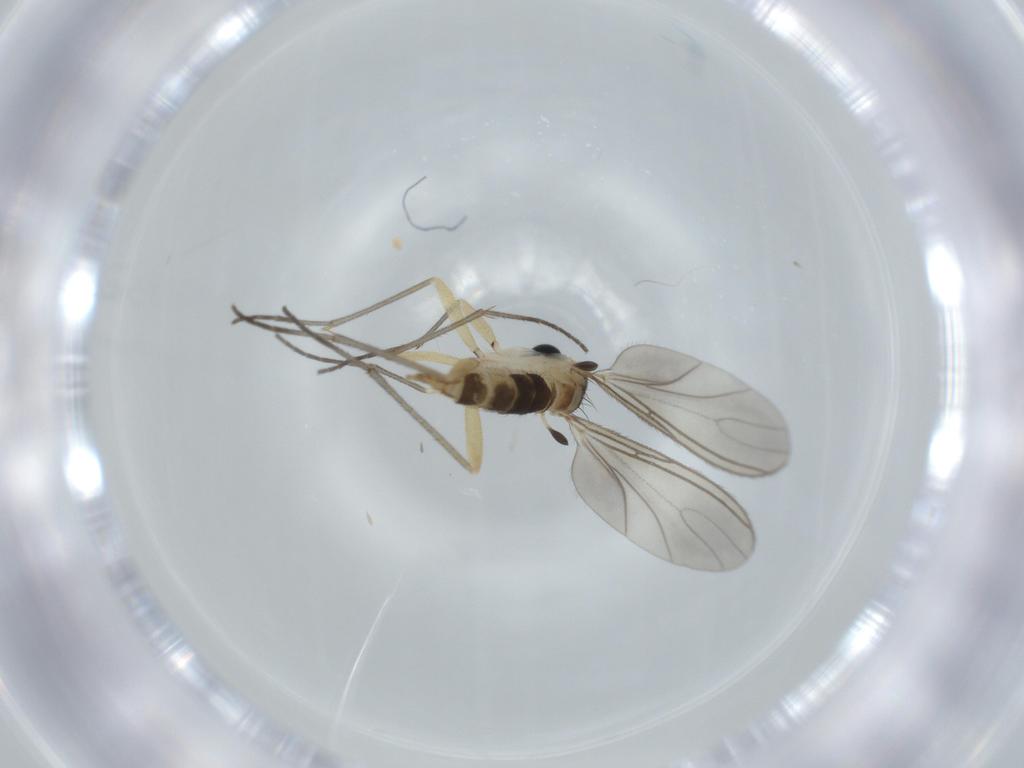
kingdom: Animalia
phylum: Arthropoda
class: Insecta
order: Diptera
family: Sciaridae
